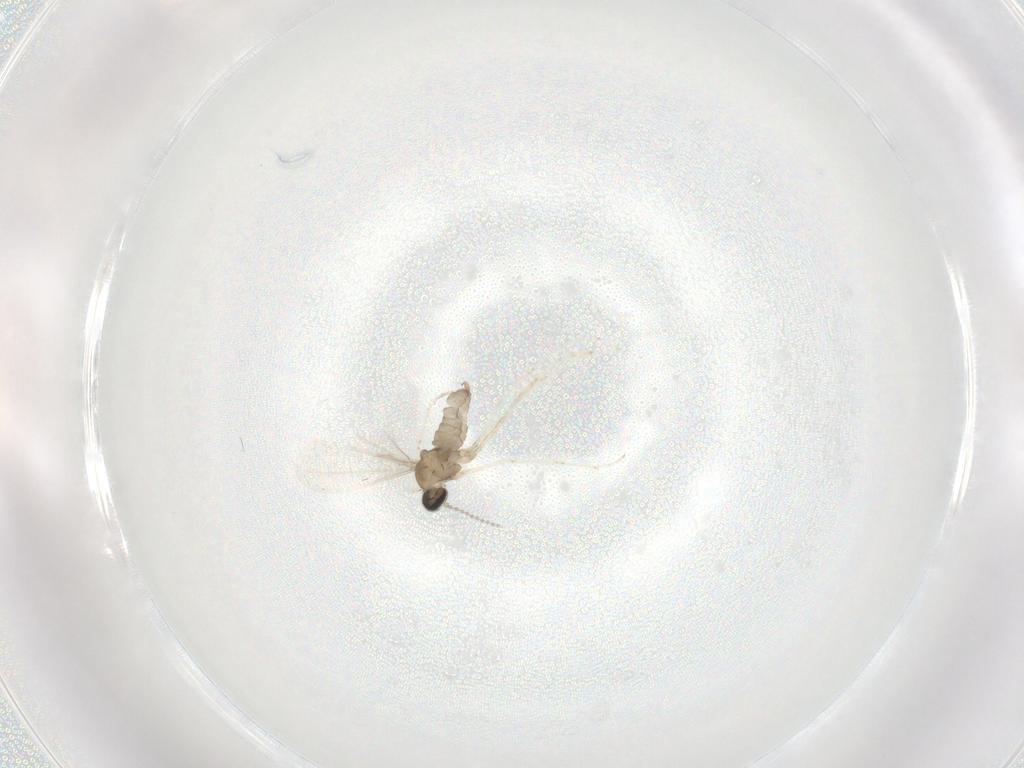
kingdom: Animalia
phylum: Arthropoda
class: Insecta
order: Diptera
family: Cecidomyiidae
